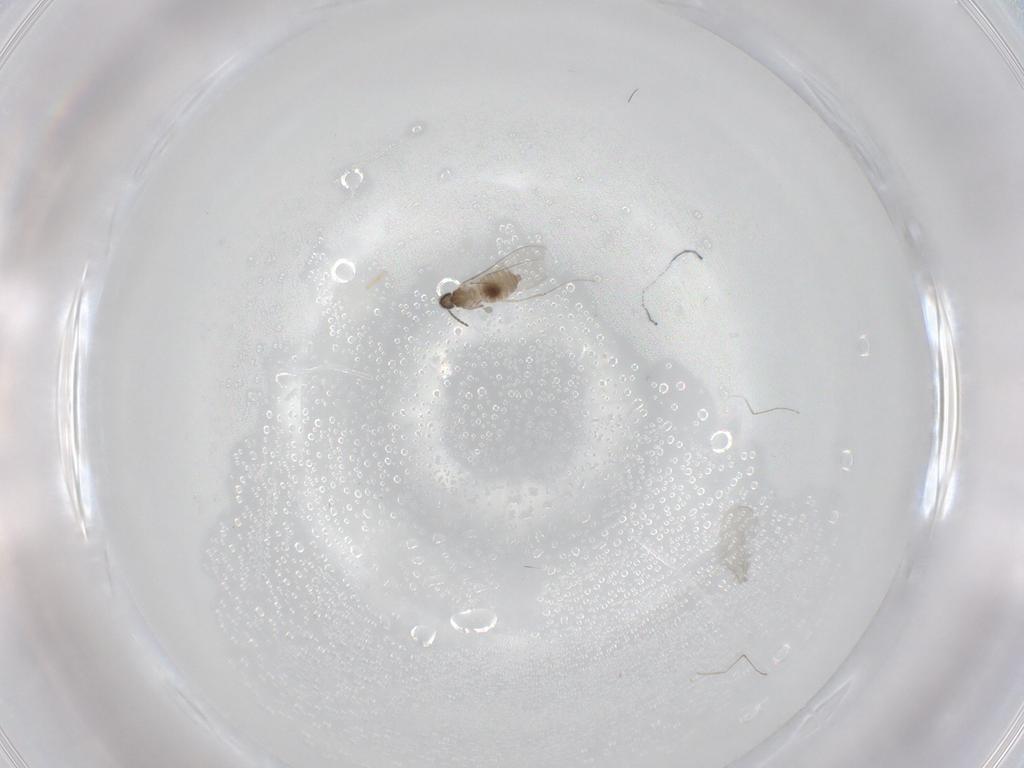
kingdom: Animalia
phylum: Arthropoda
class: Insecta
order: Diptera
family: Cecidomyiidae
